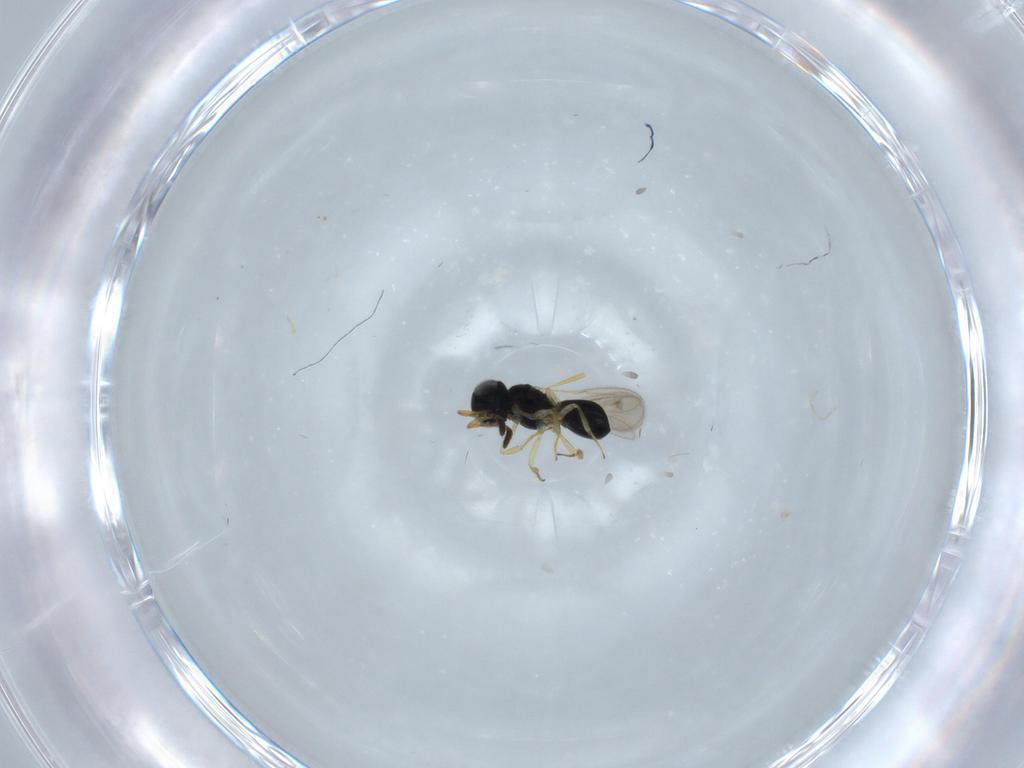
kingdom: Animalia
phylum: Arthropoda
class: Insecta
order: Hymenoptera
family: Scelionidae
